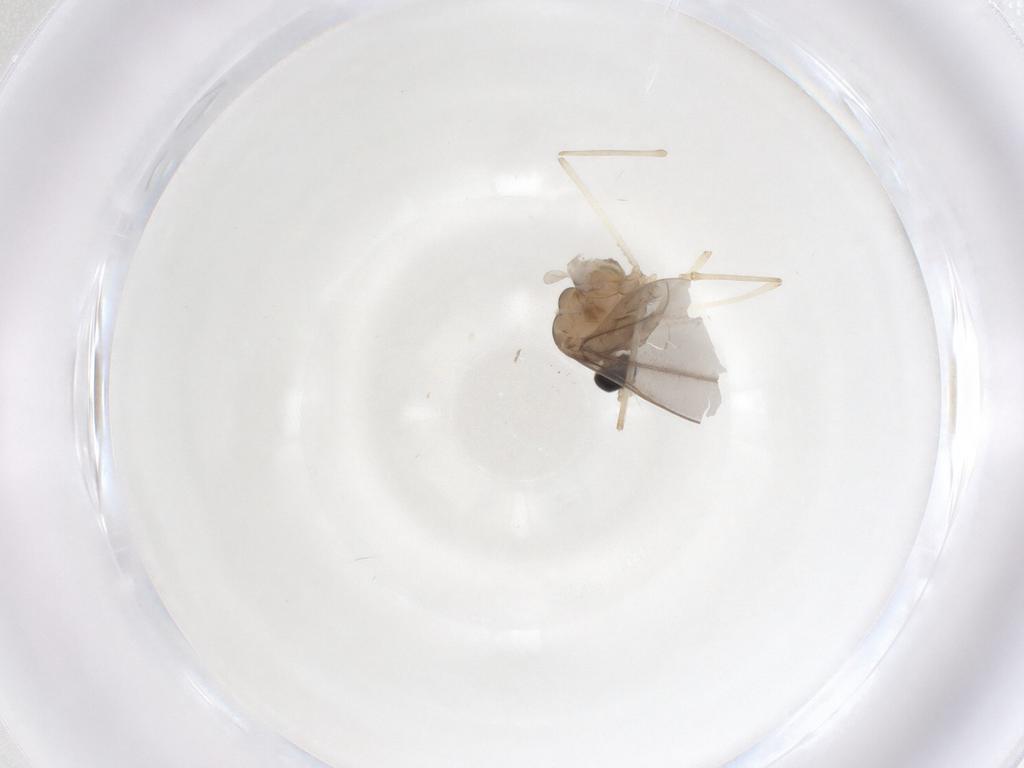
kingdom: Animalia
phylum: Arthropoda
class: Insecta
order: Diptera
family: Cecidomyiidae
